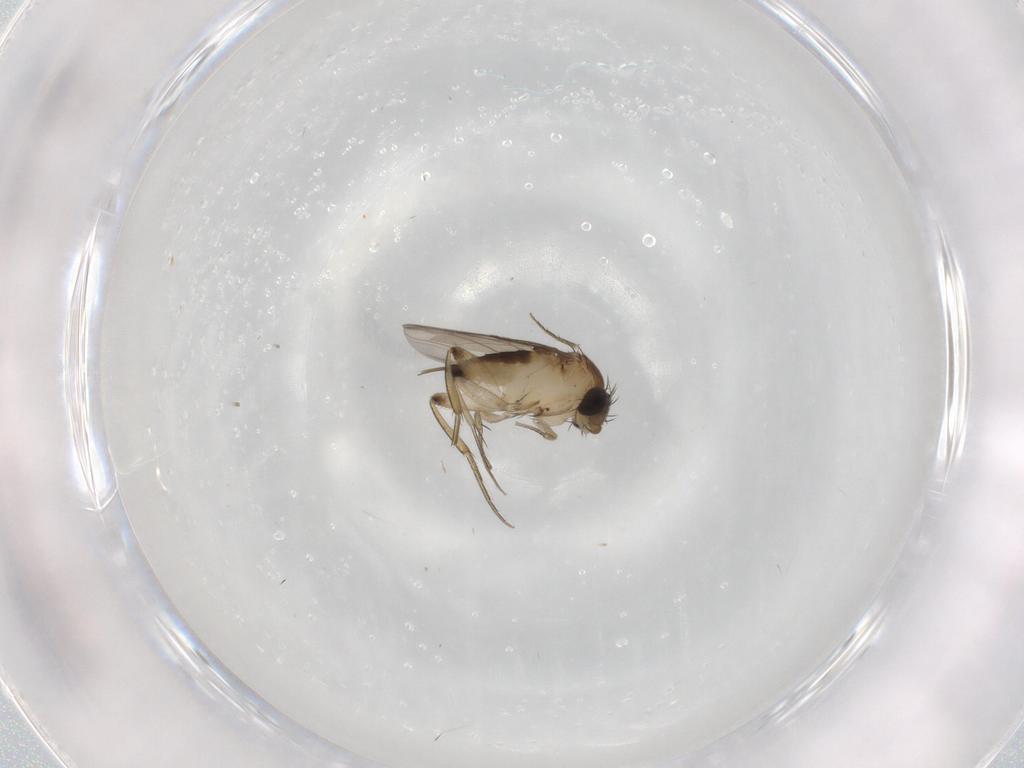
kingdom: Animalia
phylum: Arthropoda
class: Insecta
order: Diptera
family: Phoridae
